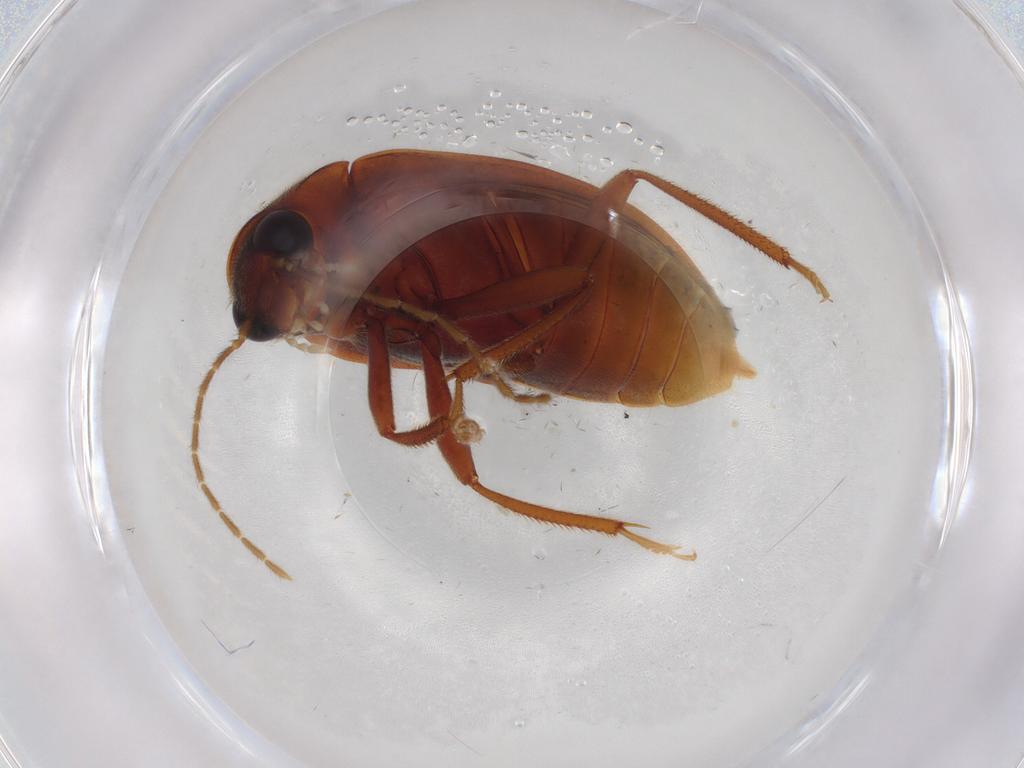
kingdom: Animalia
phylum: Arthropoda
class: Insecta
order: Coleoptera
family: Ptilodactylidae
